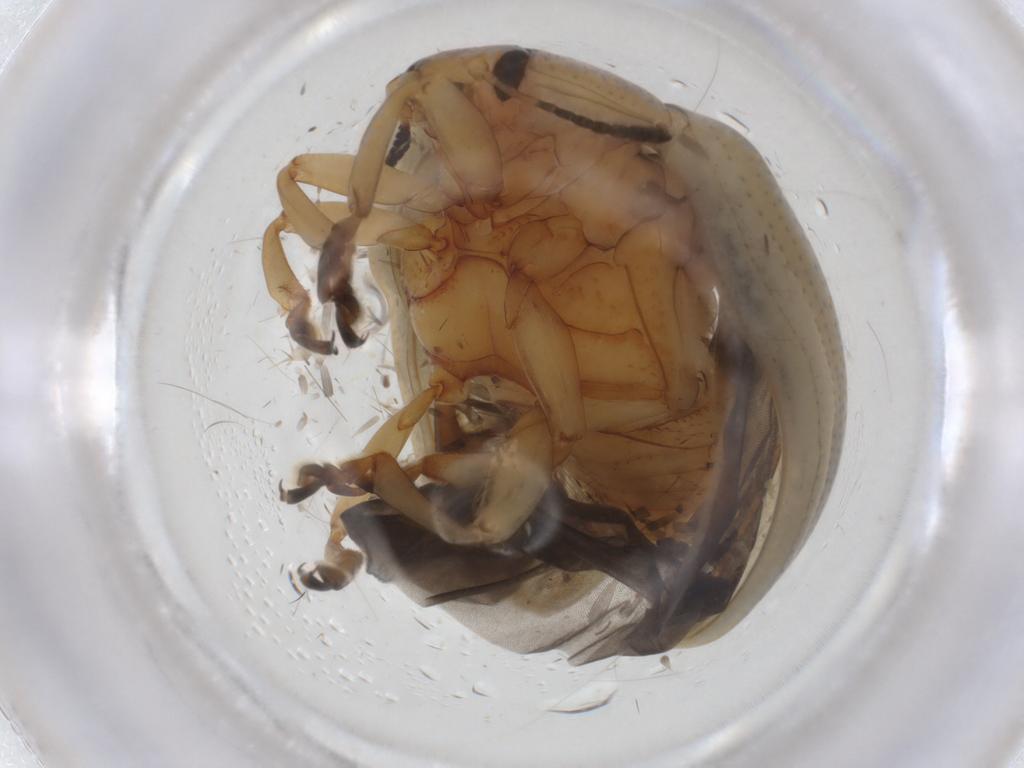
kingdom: Animalia
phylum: Arthropoda
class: Insecta
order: Coleoptera
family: Chrysomelidae
